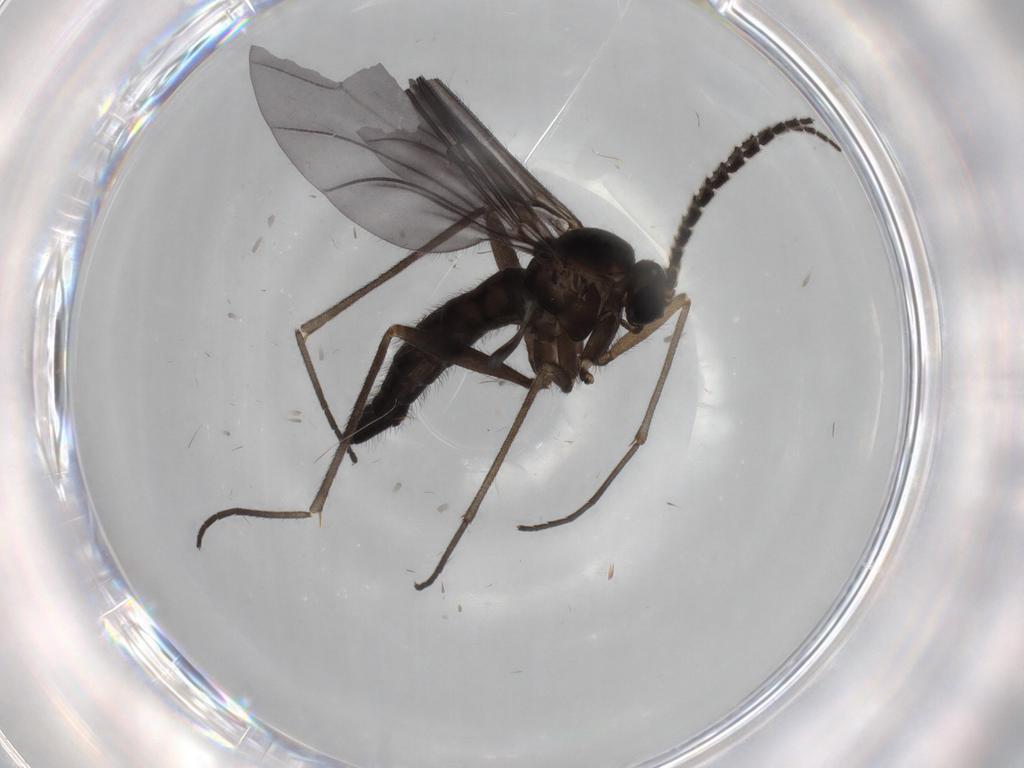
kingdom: Animalia
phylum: Arthropoda
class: Insecta
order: Diptera
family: Sciaridae
